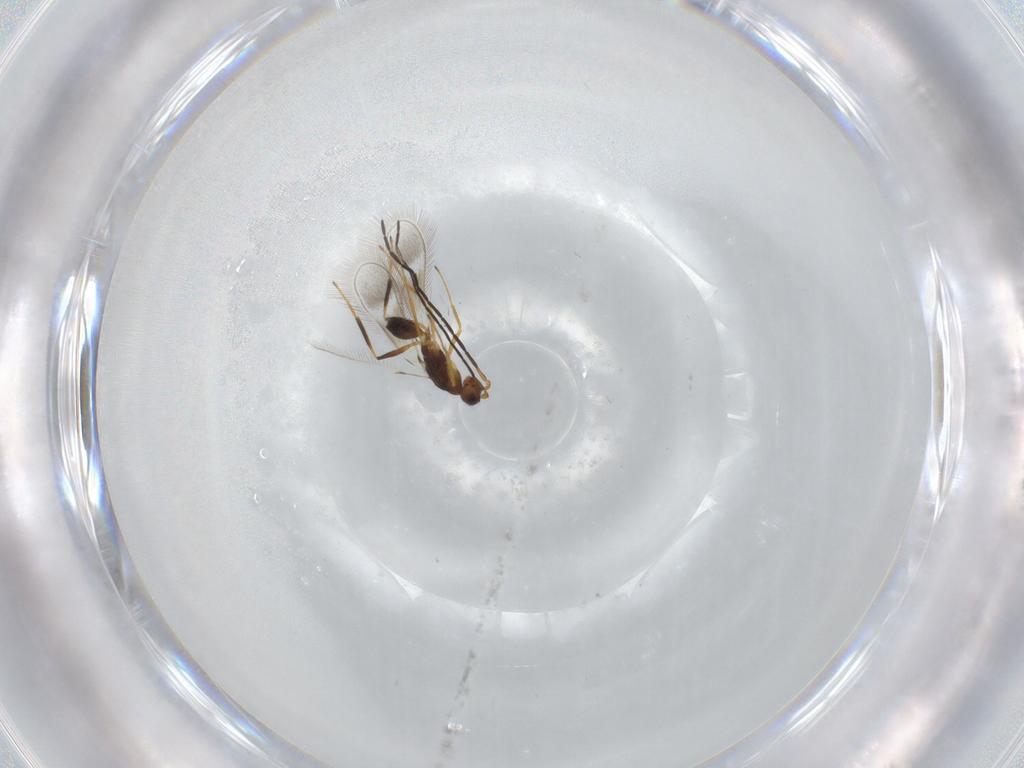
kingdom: Animalia
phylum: Arthropoda
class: Insecta
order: Hymenoptera
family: Mymaridae
